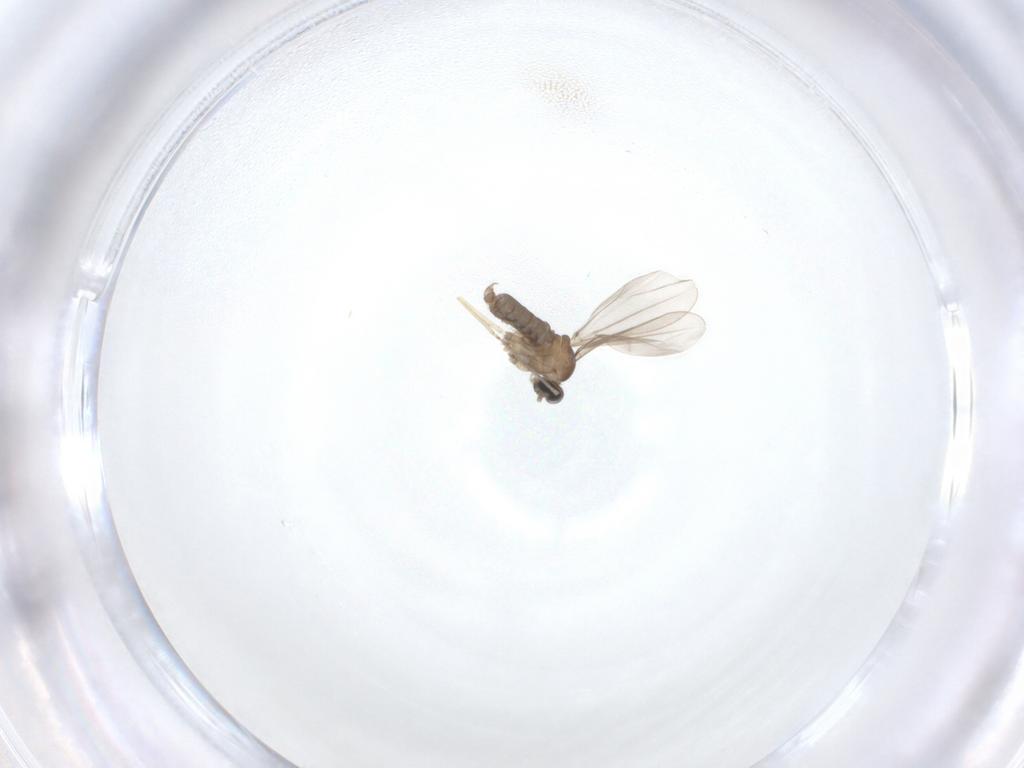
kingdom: Animalia
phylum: Arthropoda
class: Insecta
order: Diptera
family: Cecidomyiidae
